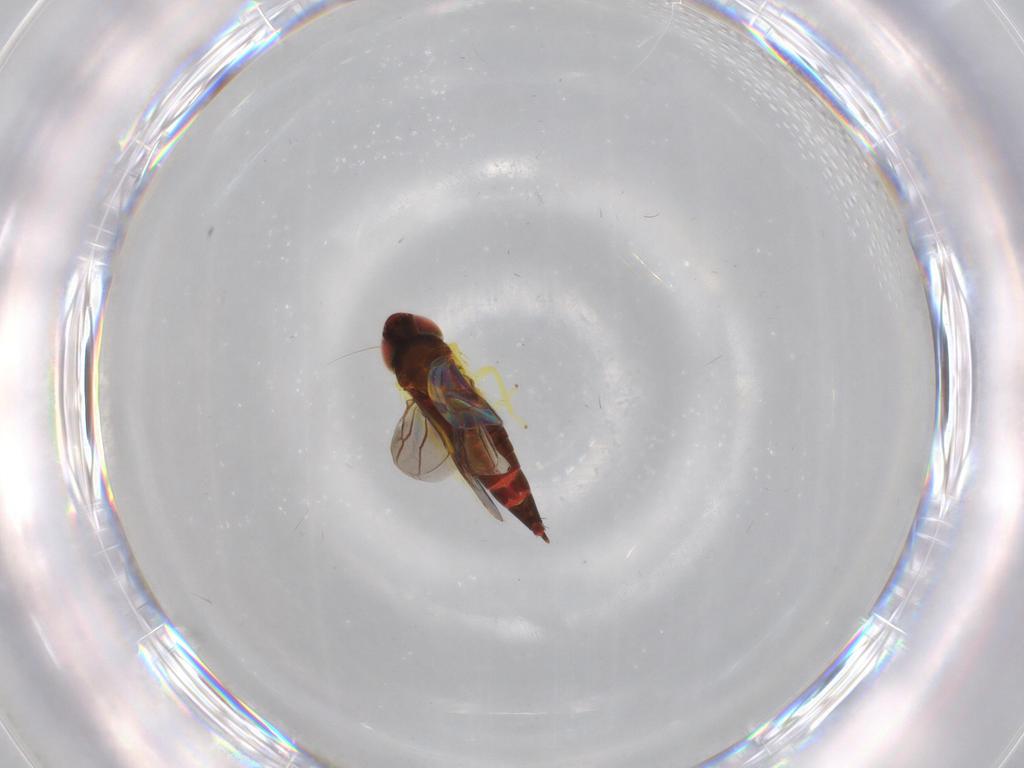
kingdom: Animalia
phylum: Arthropoda
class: Insecta
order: Hemiptera
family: Cicadellidae
